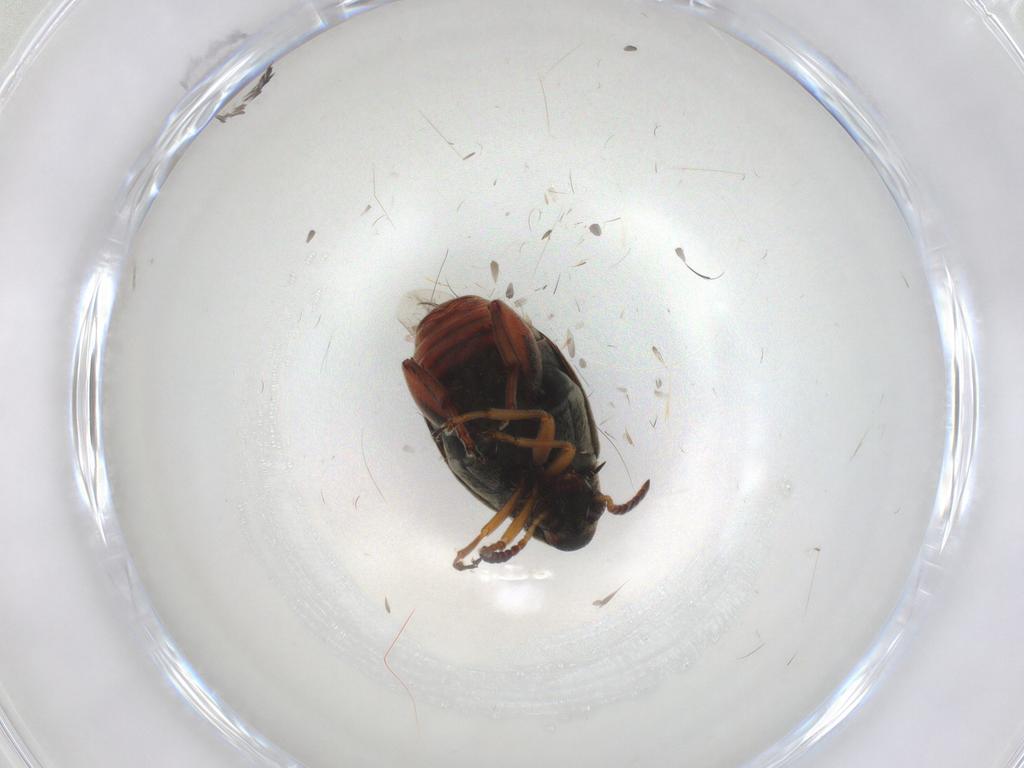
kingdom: Animalia
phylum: Arthropoda
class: Insecta
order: Coleoptera
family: Chrysomelidae
